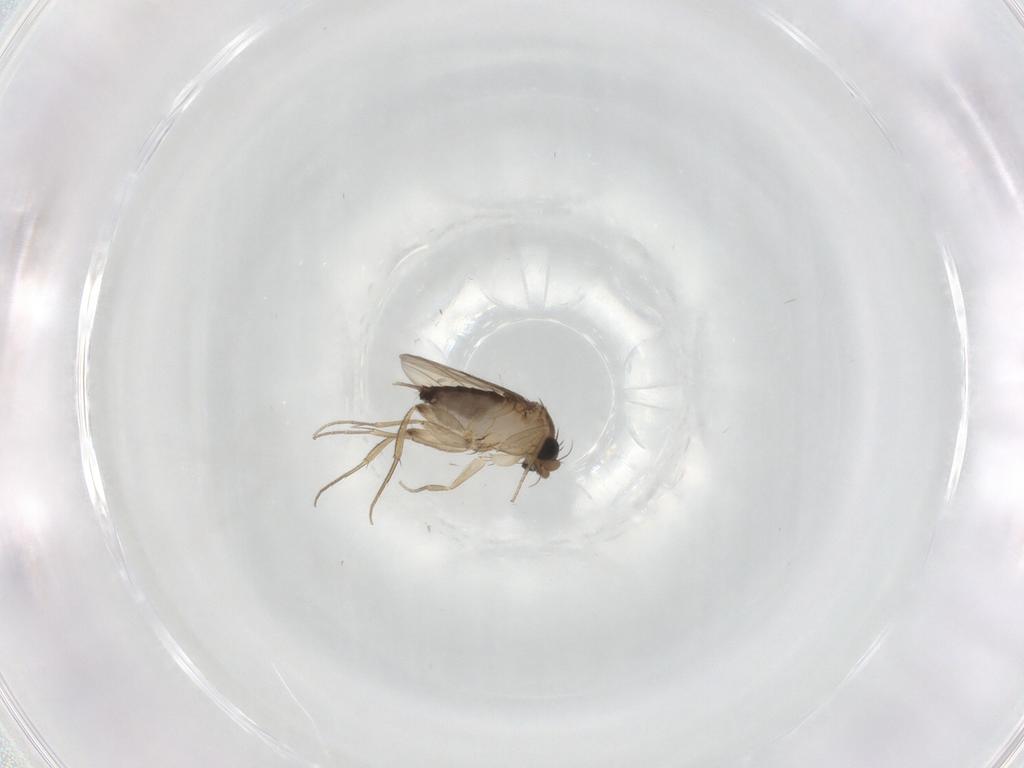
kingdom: Animalia
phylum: Arthropoda
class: Insecta
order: Diptera
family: Phoridae
